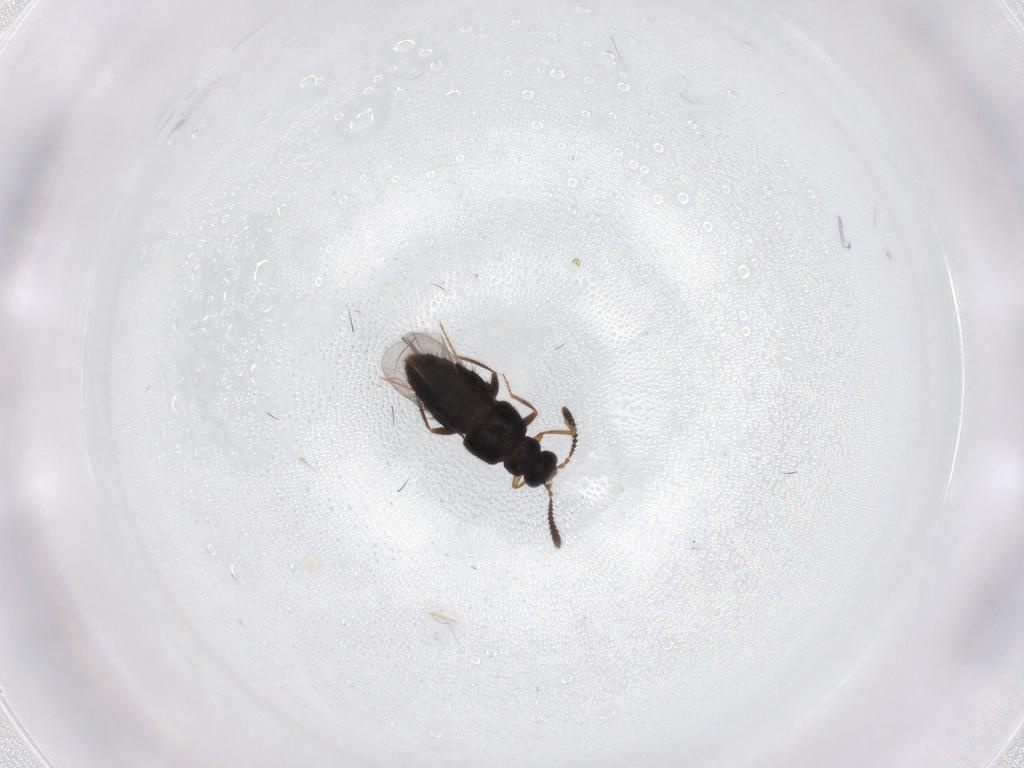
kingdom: Animalia
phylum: Arthropoda
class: Insecta
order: Coleoptera
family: Staphylinidae
